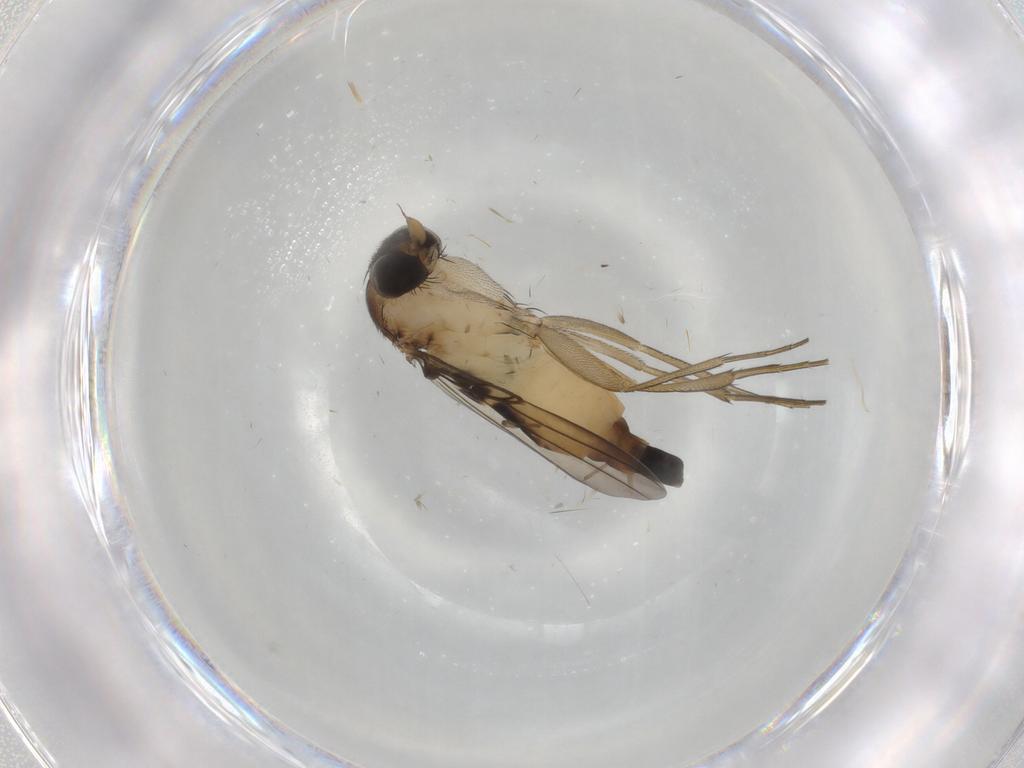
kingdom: Animalia
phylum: Arthropoda
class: Insecta
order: Diptera
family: Phoridae
